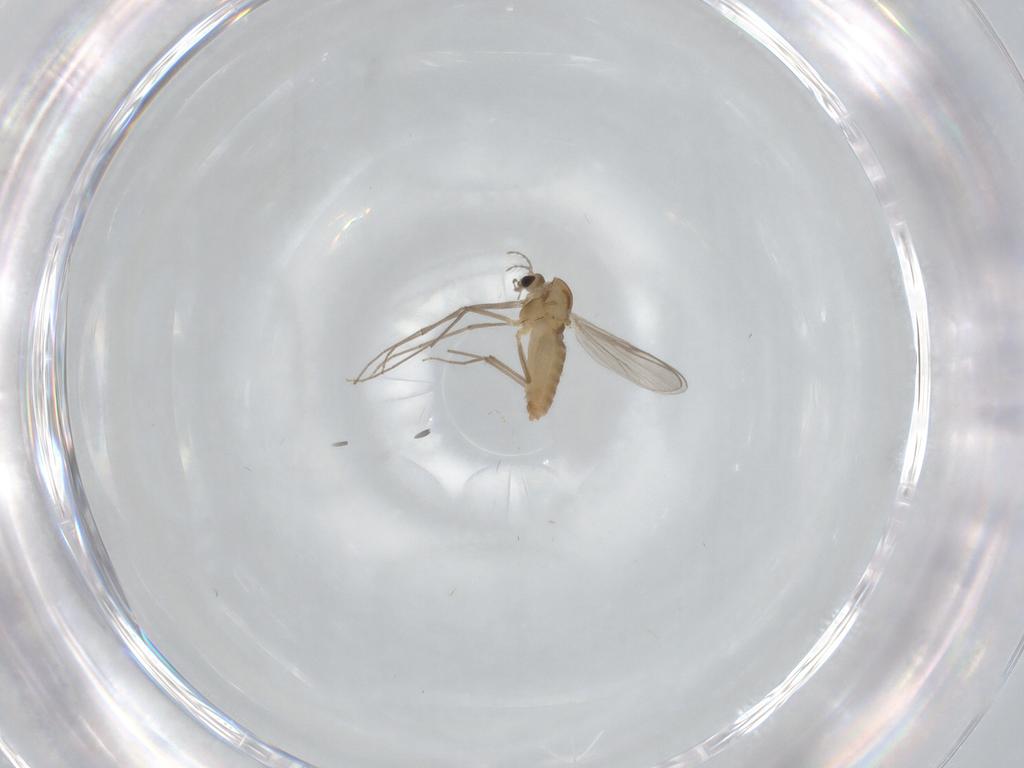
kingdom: Animalia
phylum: Arthropoda
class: Insecta
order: Diptera
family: Chironomidae
